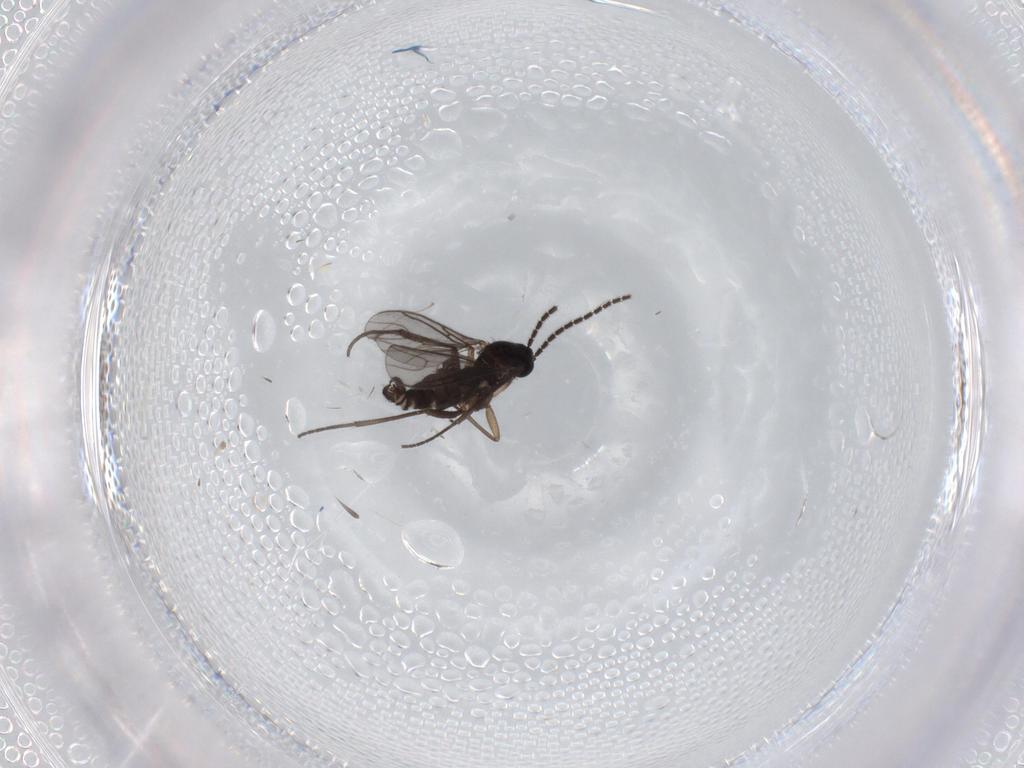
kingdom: Animalia
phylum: Arthropoda
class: Insecta
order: Diptera
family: Sciaridae
